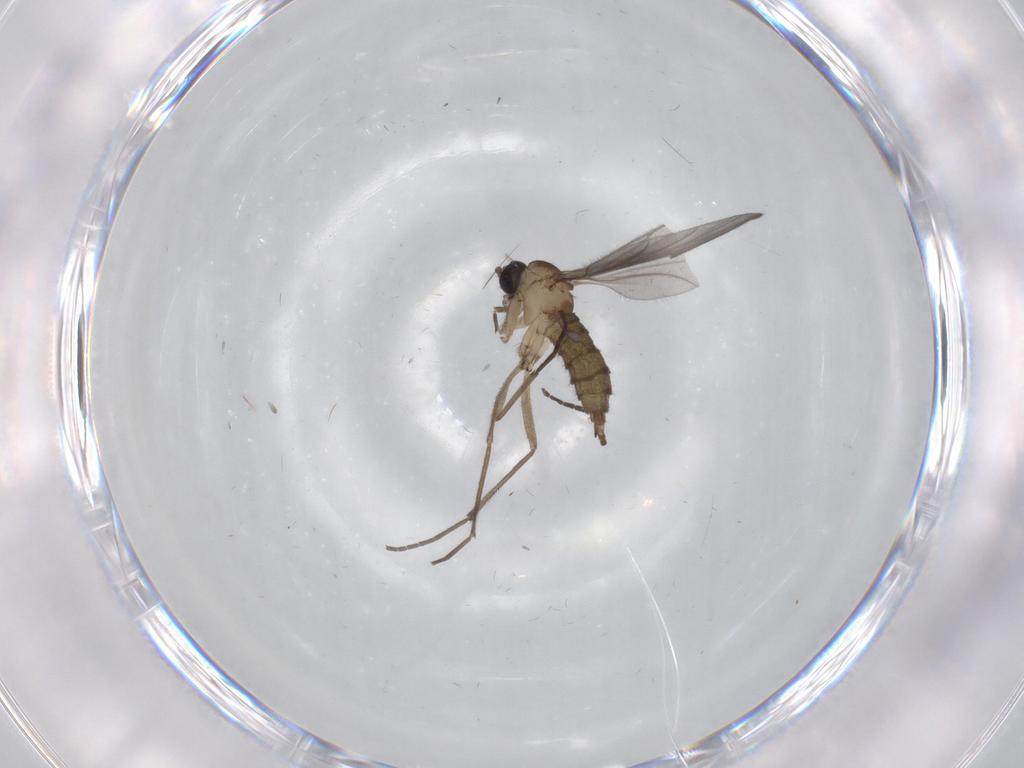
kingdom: Animalia
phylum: Arthropoda
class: Insecta
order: Diptera
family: Sciaridae
